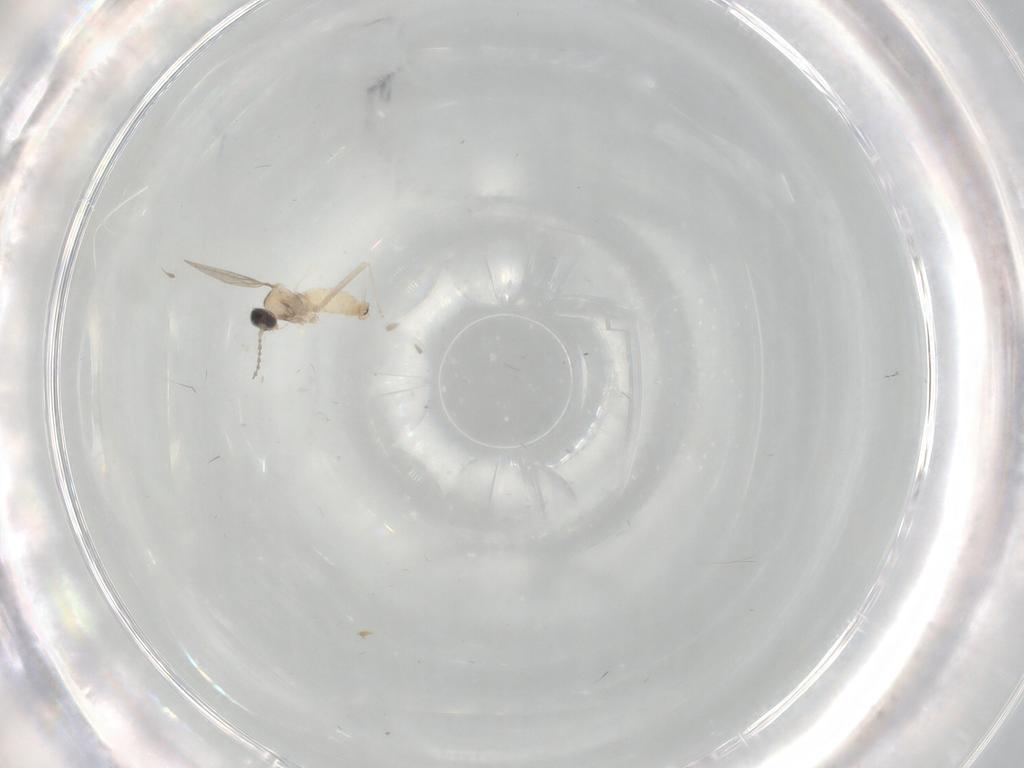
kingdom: Animalia
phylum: Arthropoda
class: Insecta
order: Diptera
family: Cecidomyiidae
